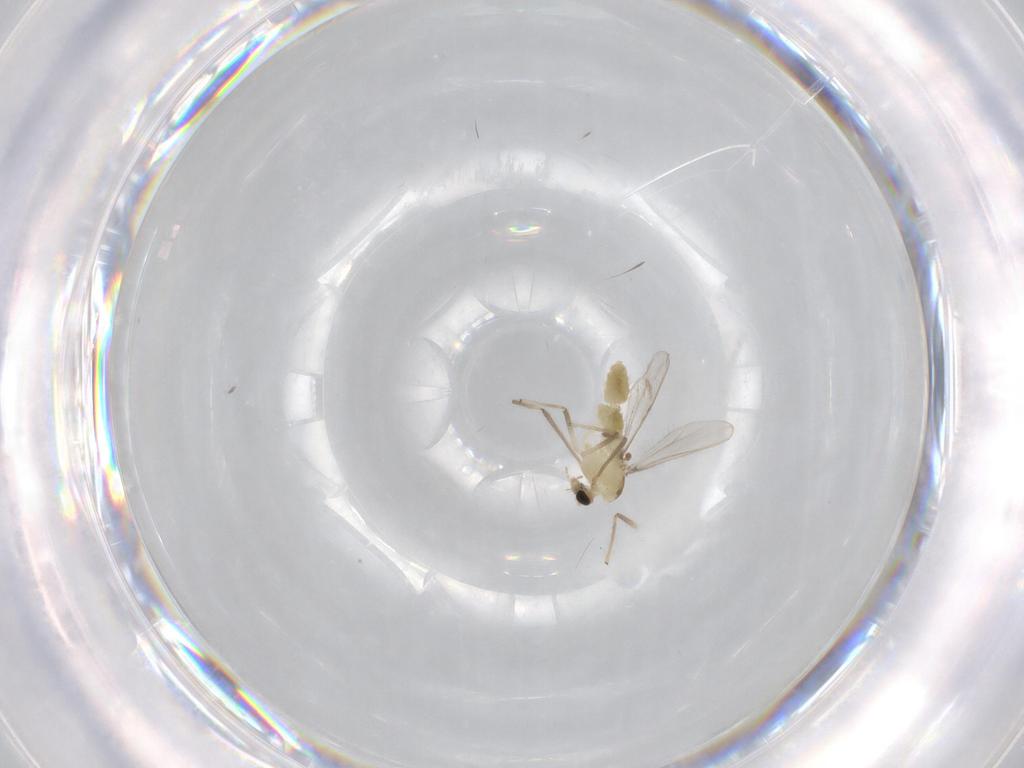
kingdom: Animalia
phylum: Arthropoda
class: Insecta
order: Diptera
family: Chironomidae
